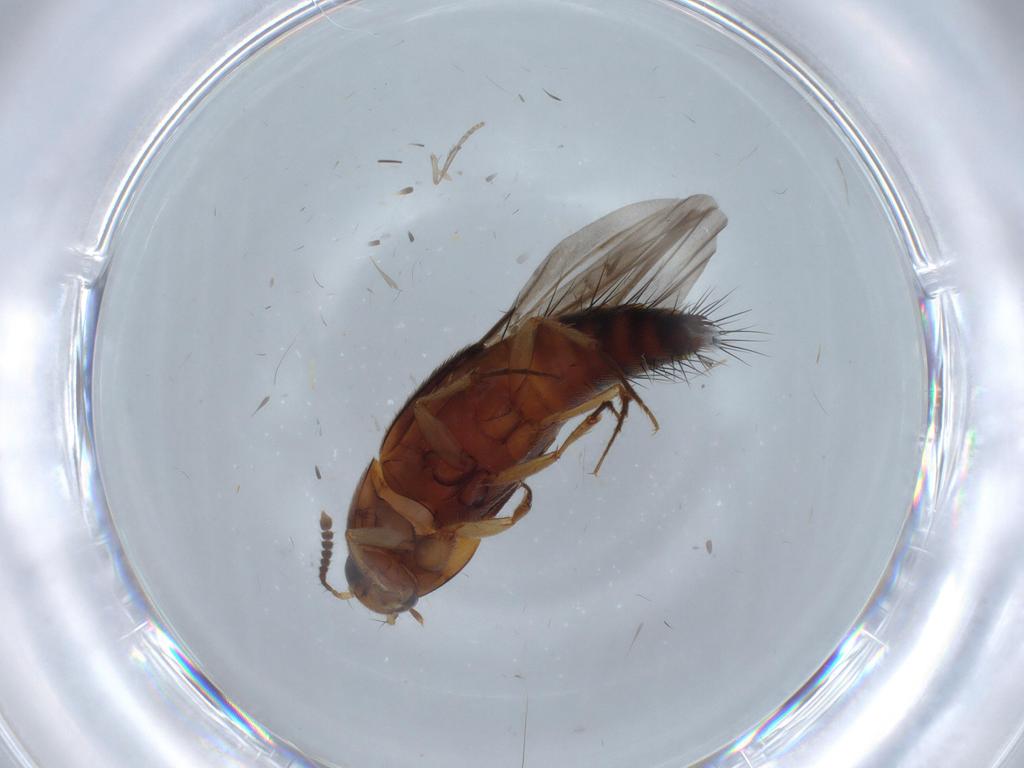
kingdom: Animalia
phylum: Arthropoda
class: Insecta
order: Coleoptera
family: Staphylinidae
